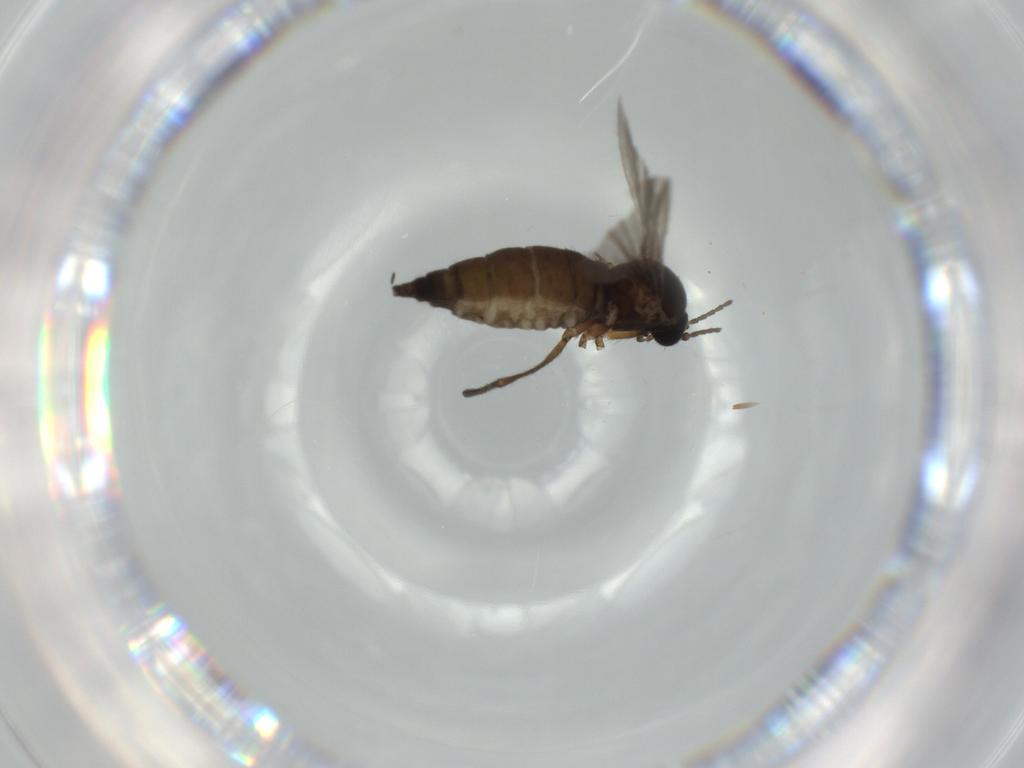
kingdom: Animalia
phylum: Arthropoda
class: Insecta
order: Diptera
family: Sciaridae
